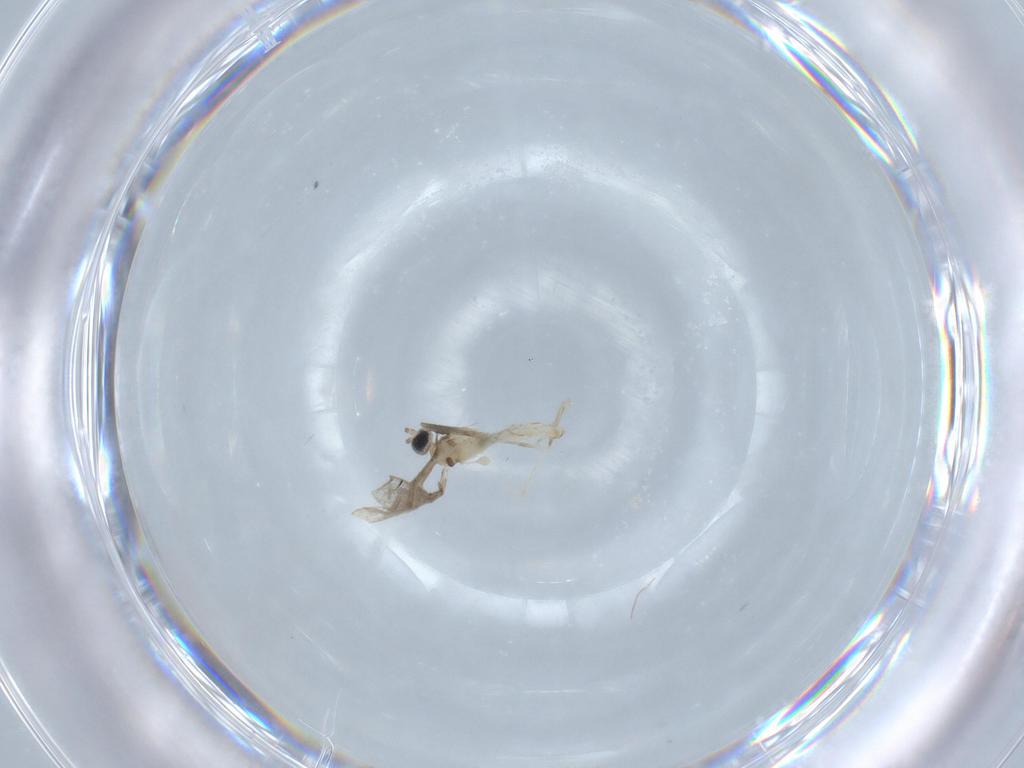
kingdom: Animalia
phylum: Arthropoda
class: Insecta
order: Diptera
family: Cecidomyiidae
